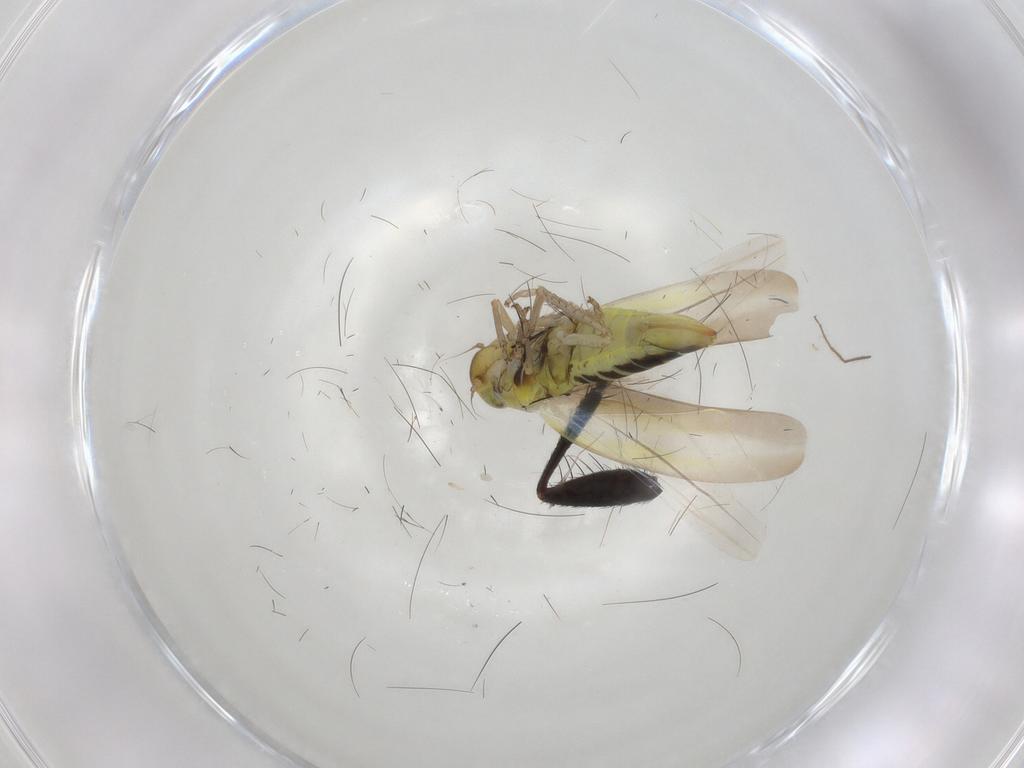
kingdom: Animalia
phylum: Arthropoda
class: Insecta
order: Hemiptera
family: Cicadellidae
